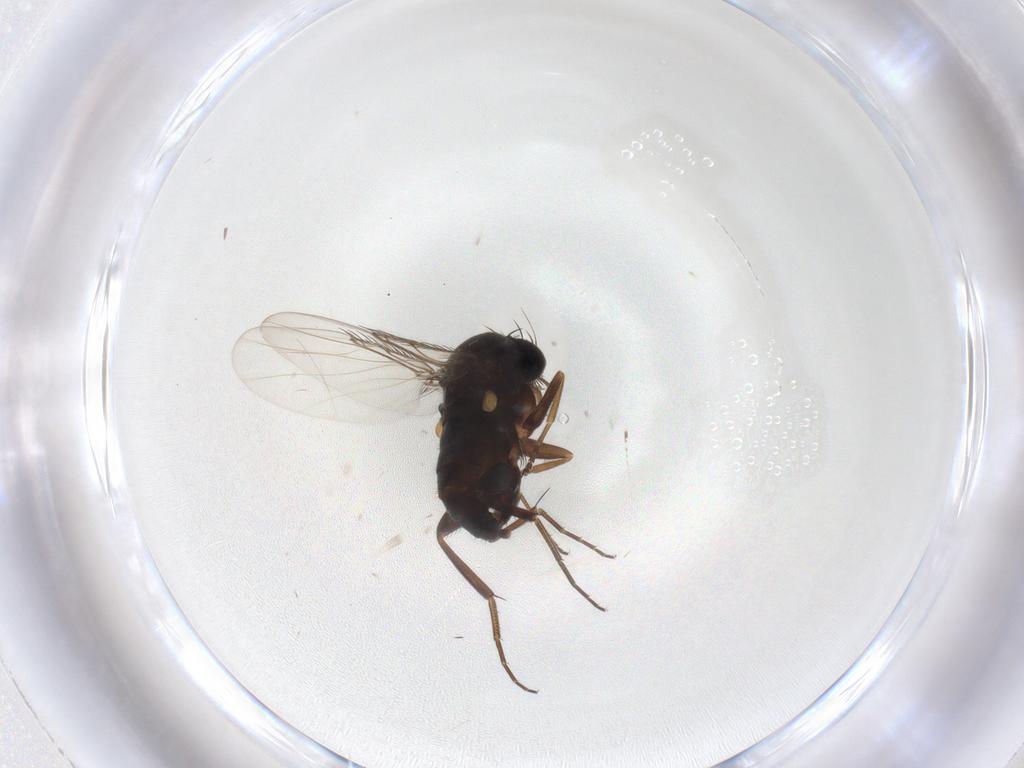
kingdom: Animalia
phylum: Arthropoda
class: Insecta
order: Diptera
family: Phoridae
